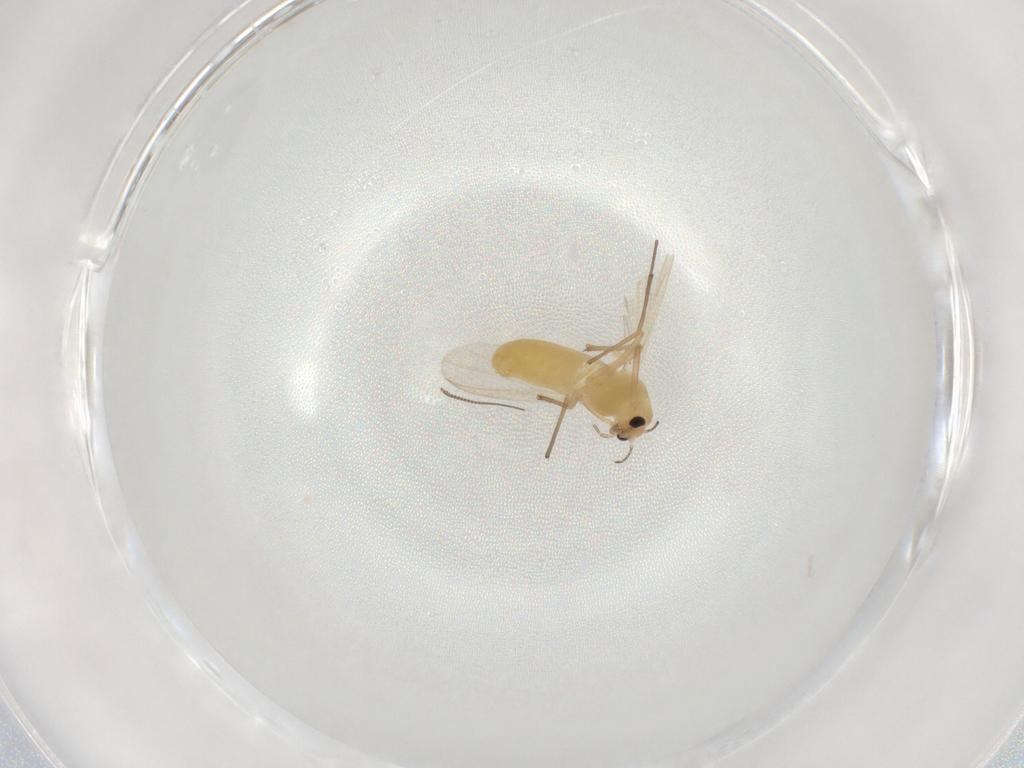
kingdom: Animalia
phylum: Arthropoda
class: Insecta
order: Diptera
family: Chironomidae
